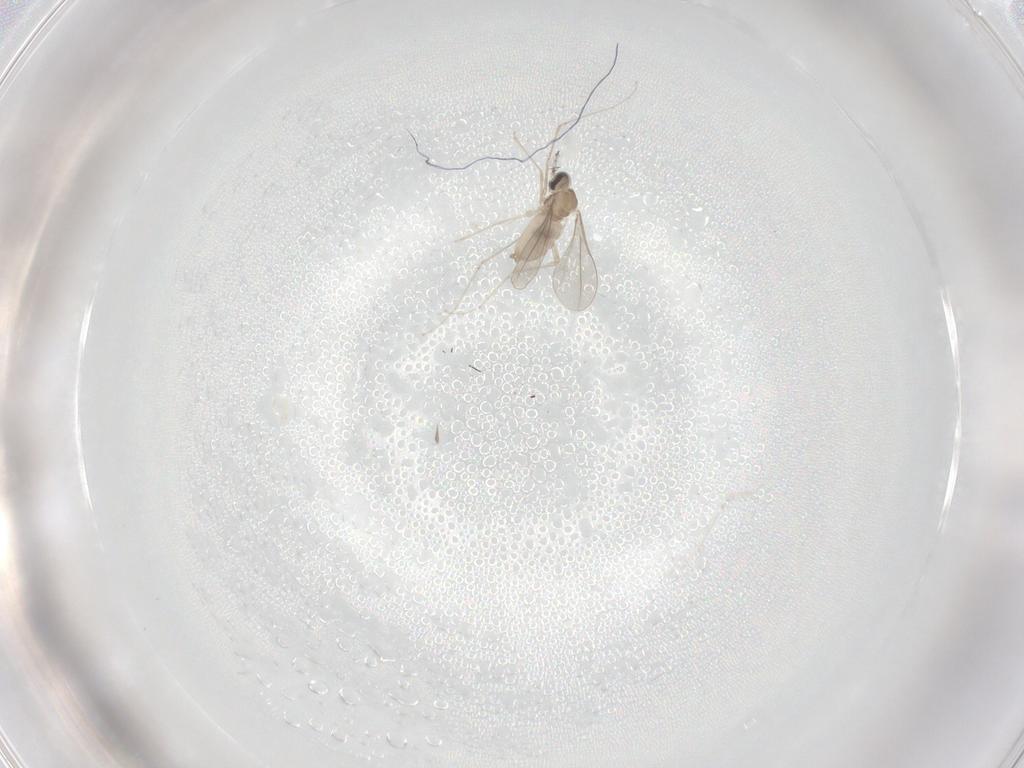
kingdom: Animalia
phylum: Arthropoda
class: Insecta
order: Diptera
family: Cecidomyiidae
